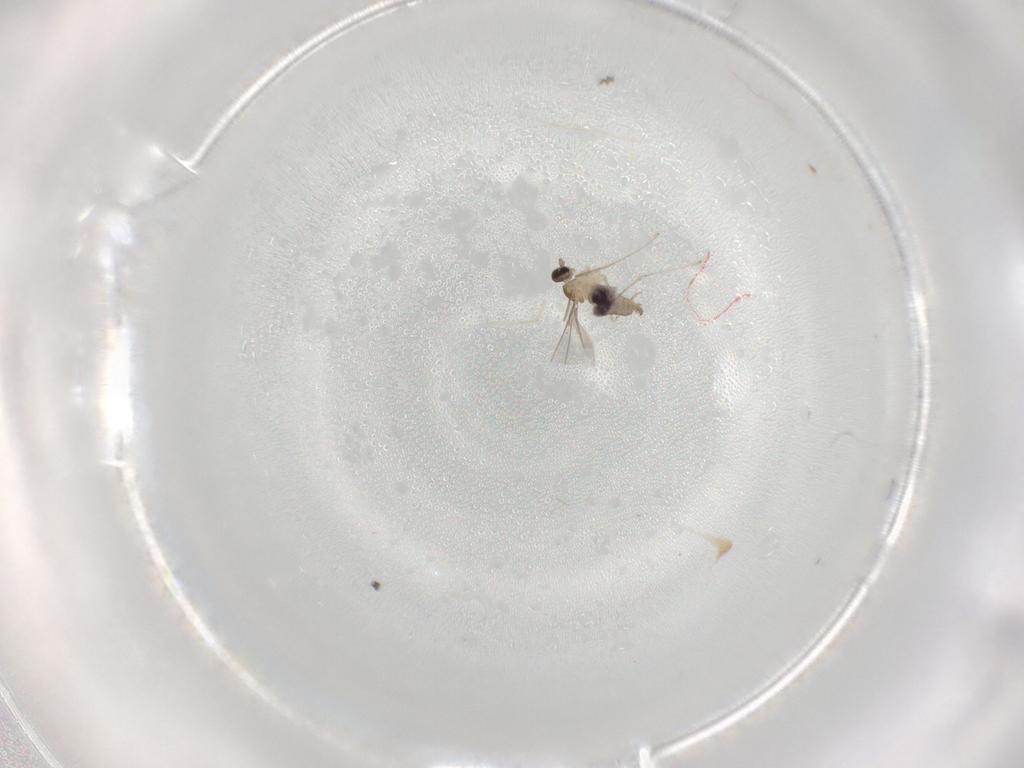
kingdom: Animalia
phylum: Arthropoda
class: Insecta
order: Diptera
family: Cecidomyiidae
